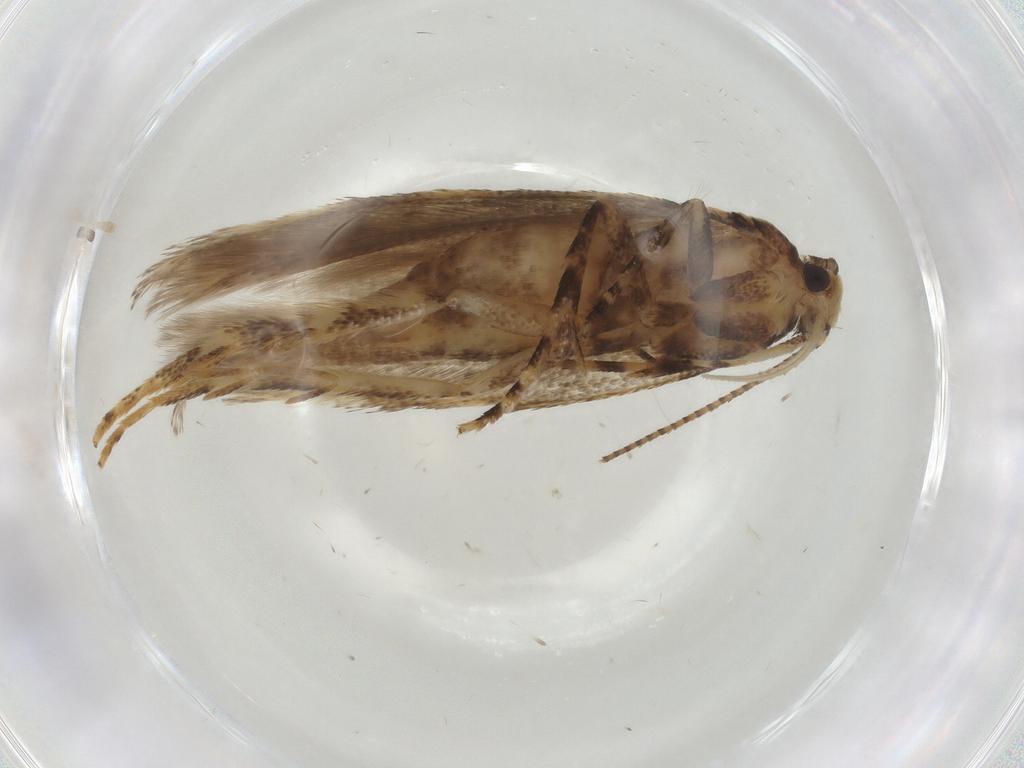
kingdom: Animalia
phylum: Arthropoda
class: Insecta
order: Lepidoptera
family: Gelechiidae
